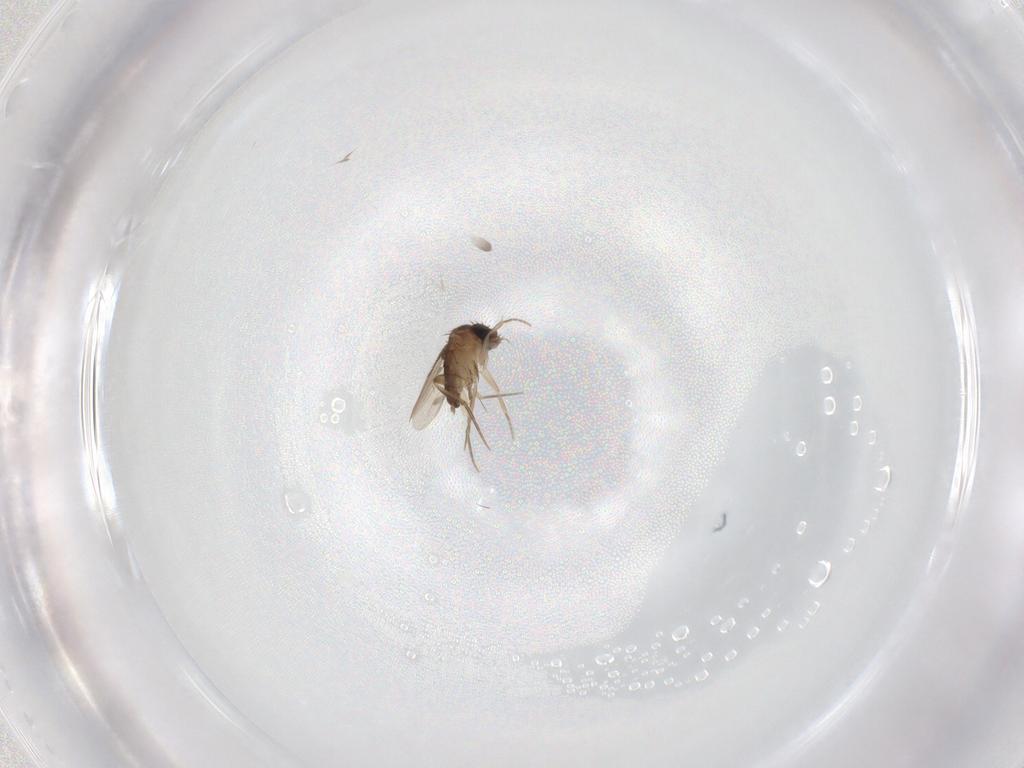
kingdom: Animalia
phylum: Arthropoda
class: Insecta
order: Diptera
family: Phoridae
